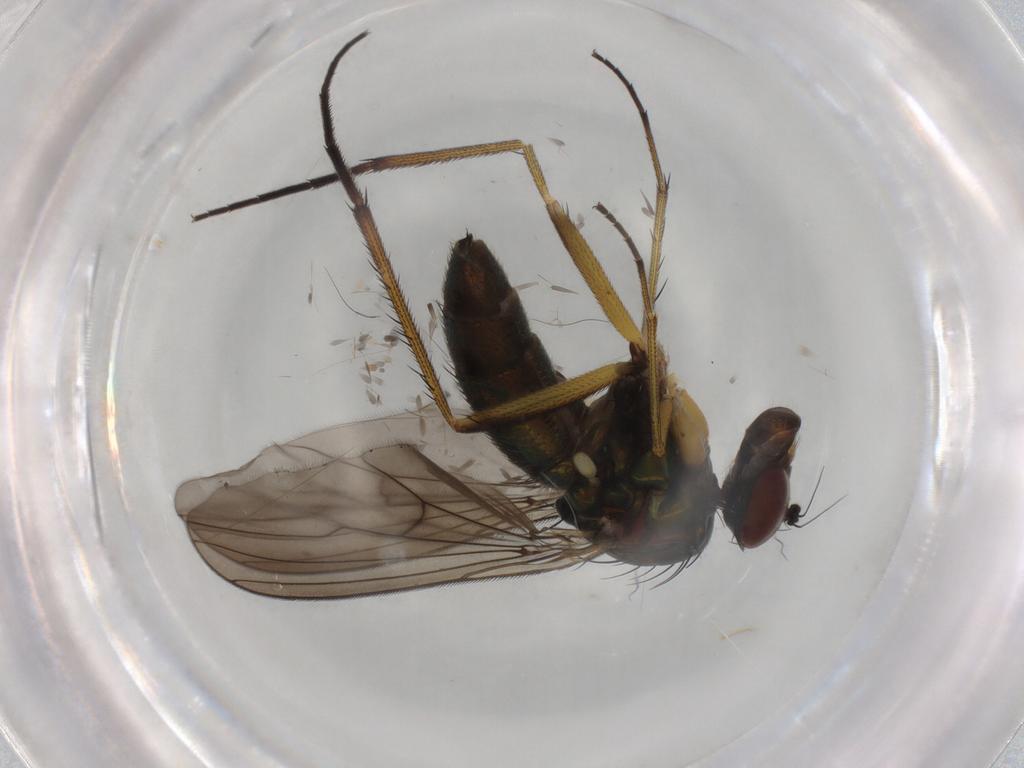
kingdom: Animalia
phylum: Arthropoda
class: Insecta
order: Diptera
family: Dolichopodidae
